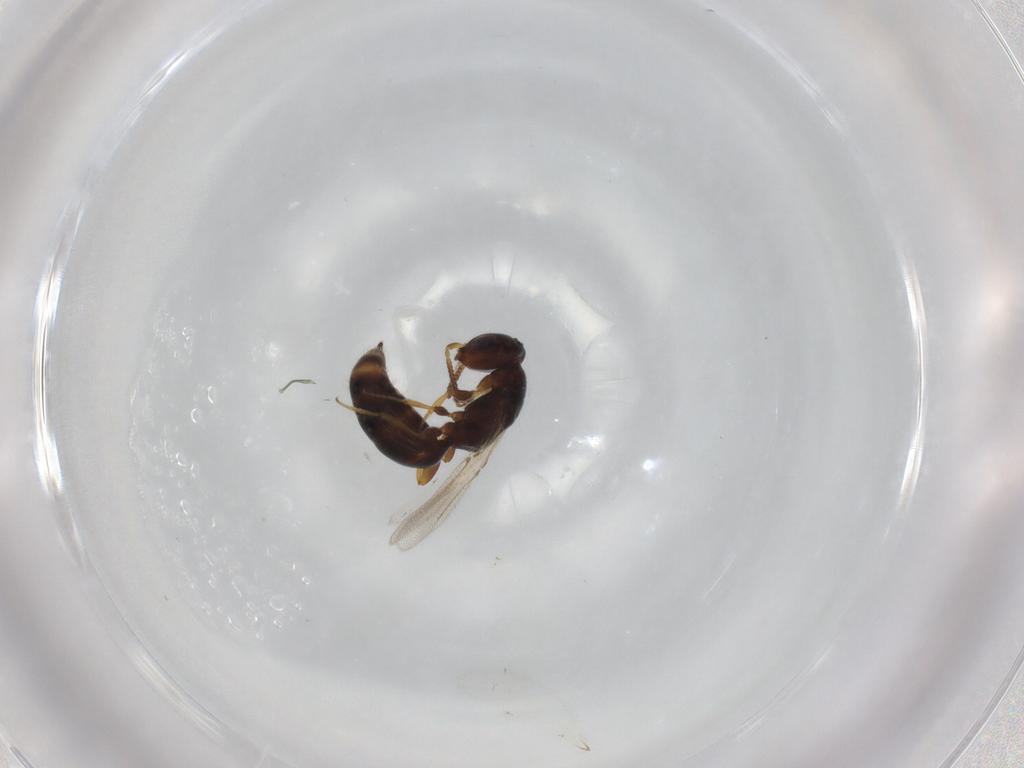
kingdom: Animalia
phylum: Arthropoda
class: Insecta
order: Hymenoptera
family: Bethylidae
